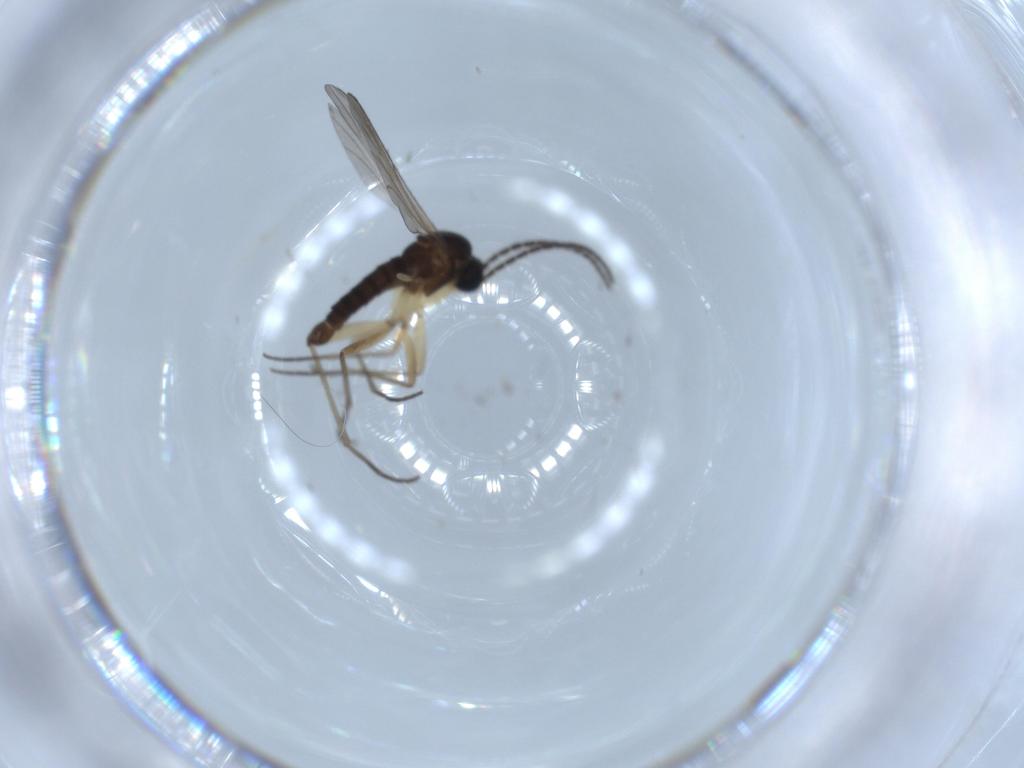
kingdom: Animalia
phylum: Arthropoda
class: Insecta
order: Diptera
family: Sciaridae
